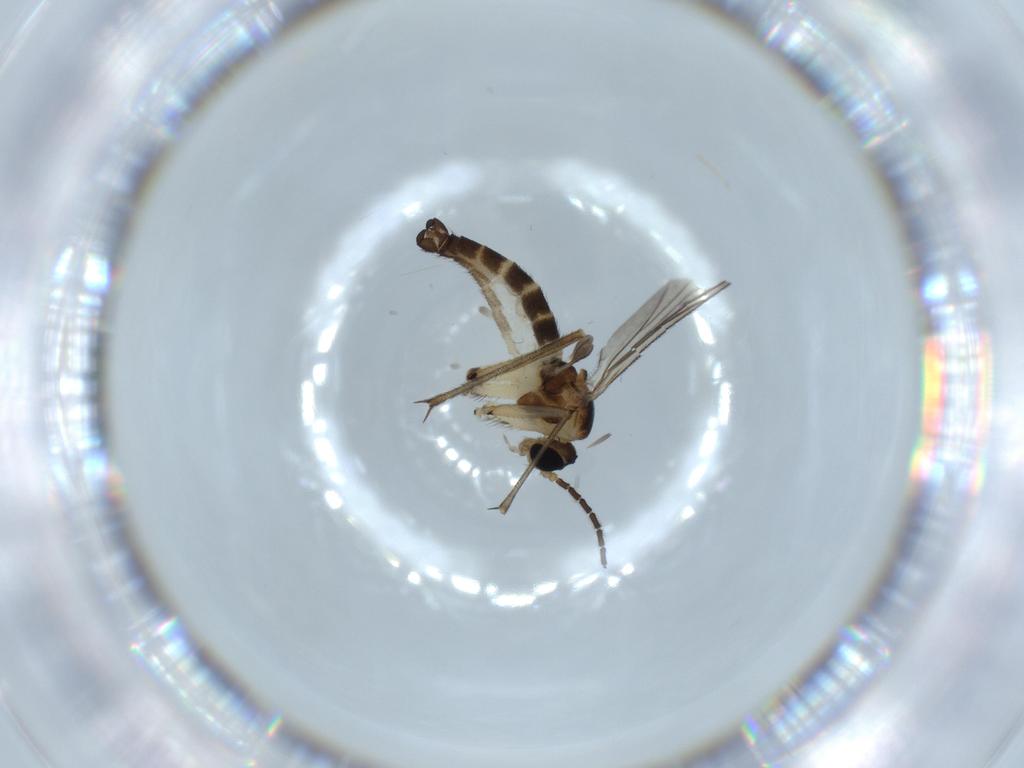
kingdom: Animalia
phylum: Arthropoda
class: Insecta
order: Diptera
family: Sciaridae
